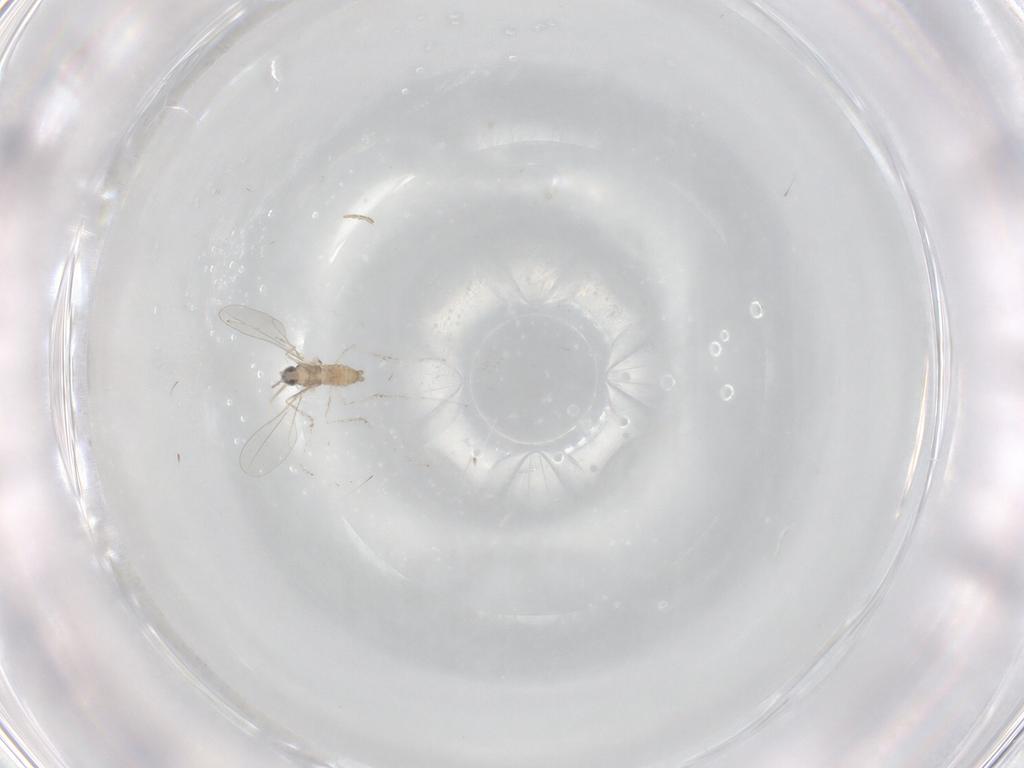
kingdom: Animalia
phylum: Arthropoda
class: Insecta
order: Diptera
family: Cecidomyiidae
